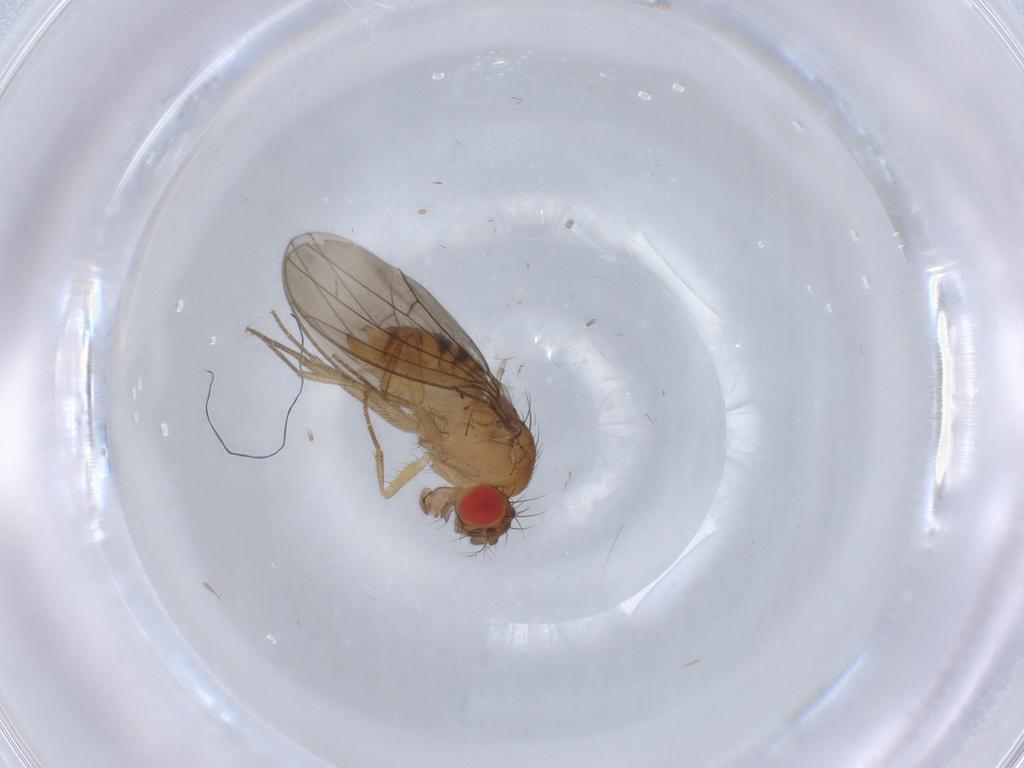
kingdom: Animalia
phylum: Arthropoda
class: Insecta
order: Diptera
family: Drosophilidae
